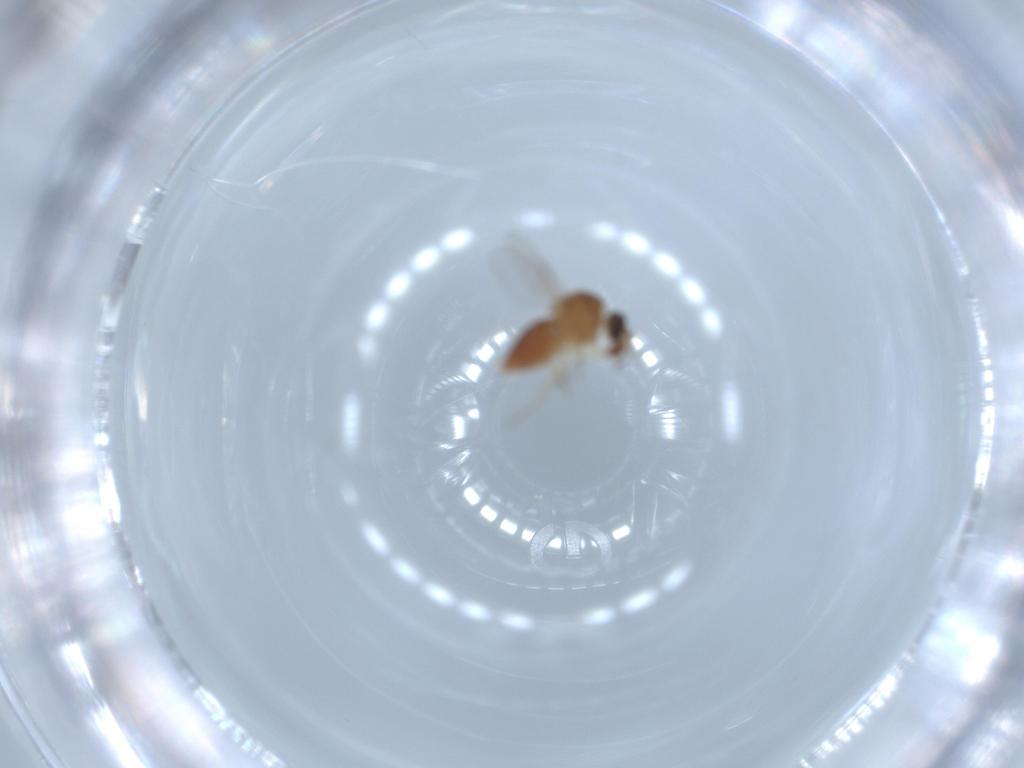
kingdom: Animalia
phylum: Arthropoda
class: Insecta
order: Diptera
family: Ceratopogonidae
